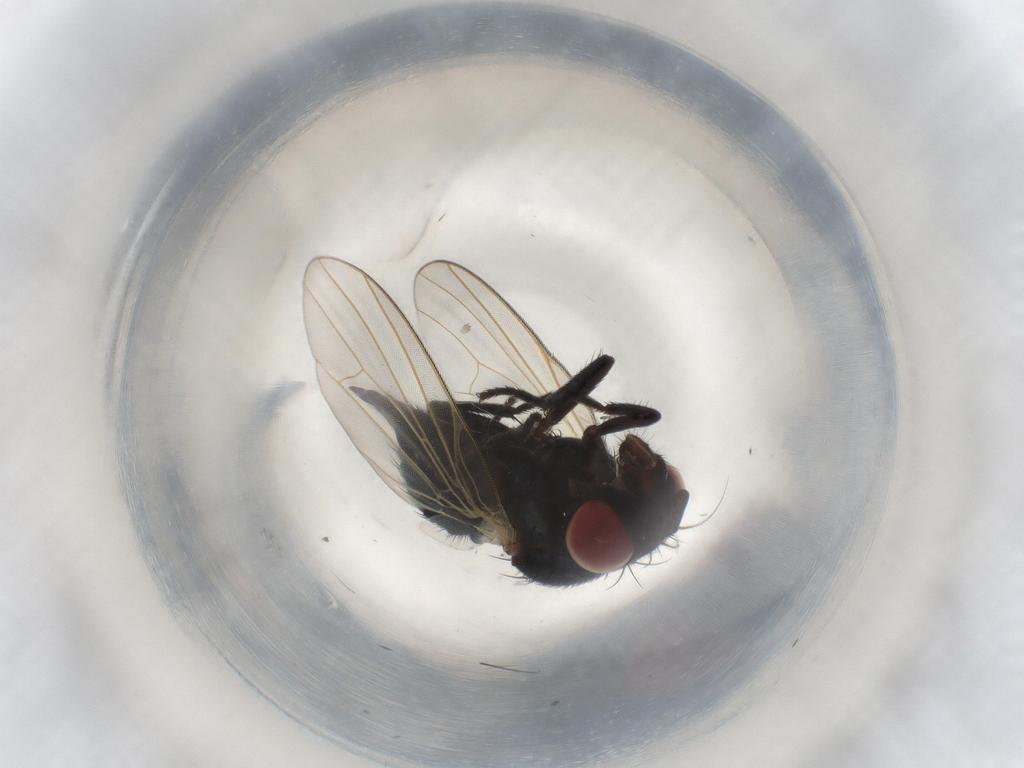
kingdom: Animalia
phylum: Arthropoda
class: Insecta
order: Diptera
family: Sphaeroceridae
